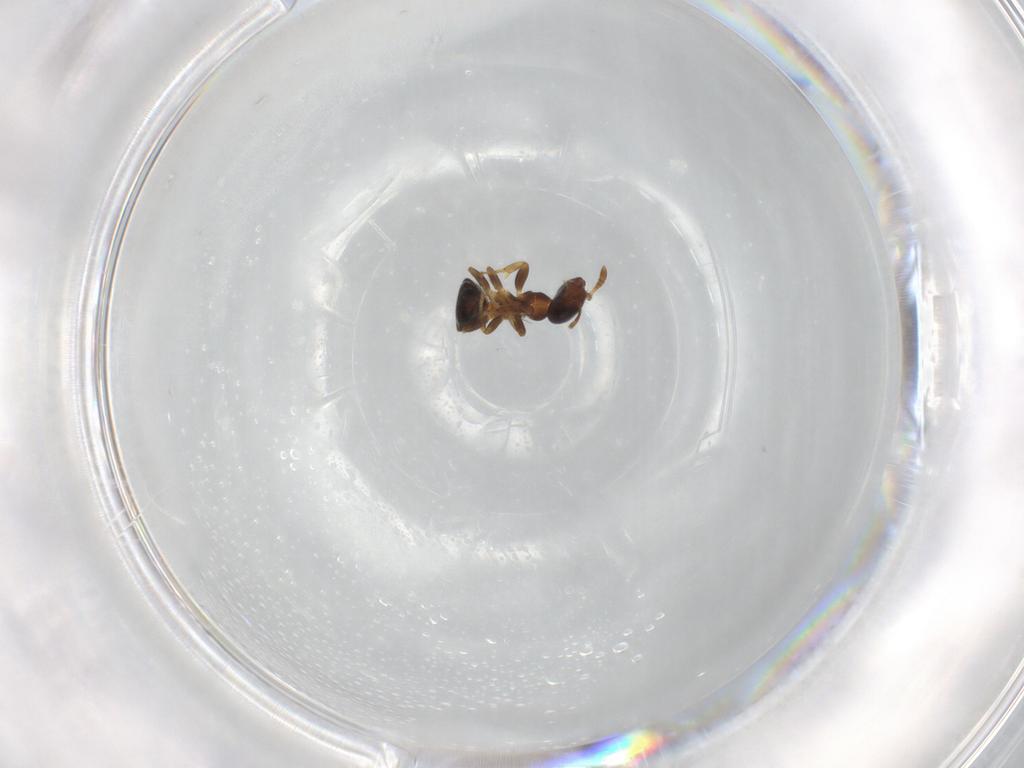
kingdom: Animalia
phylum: Arthropoda
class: Insecta
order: Hymenoptera
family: Formicidae
